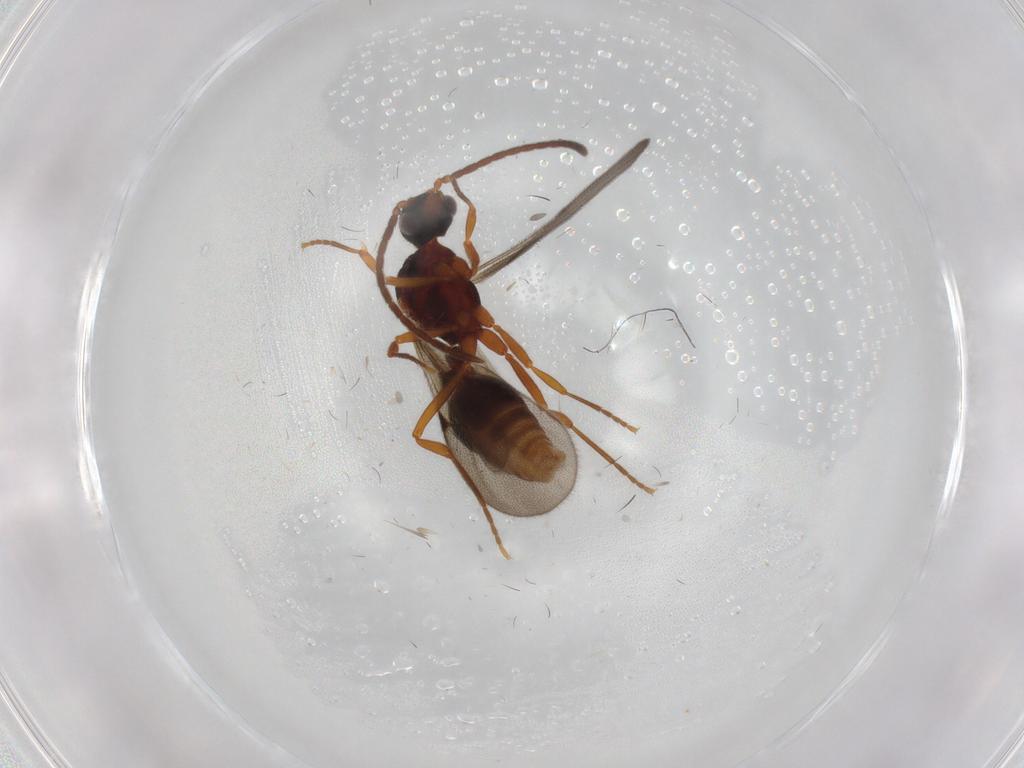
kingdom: Animalia
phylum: Arthropoda
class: Insecta
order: Hymenoptera
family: Formicidae
